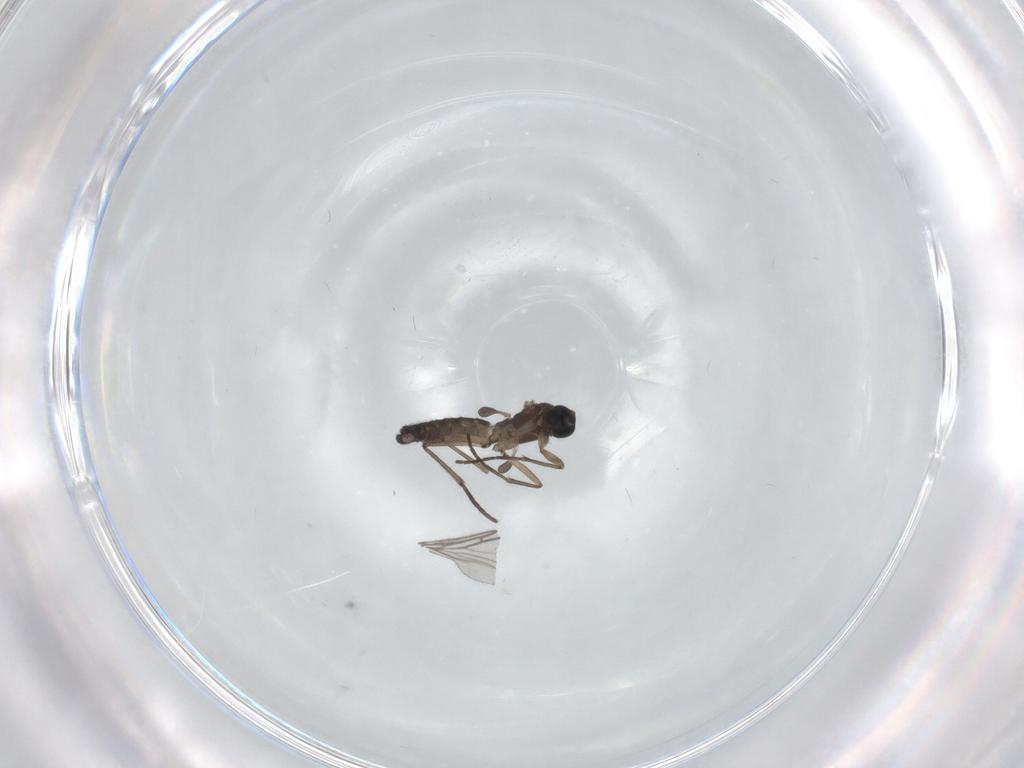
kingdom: Animalia
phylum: Arthropoda
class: Insecta
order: Diptera
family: Sciaridae
